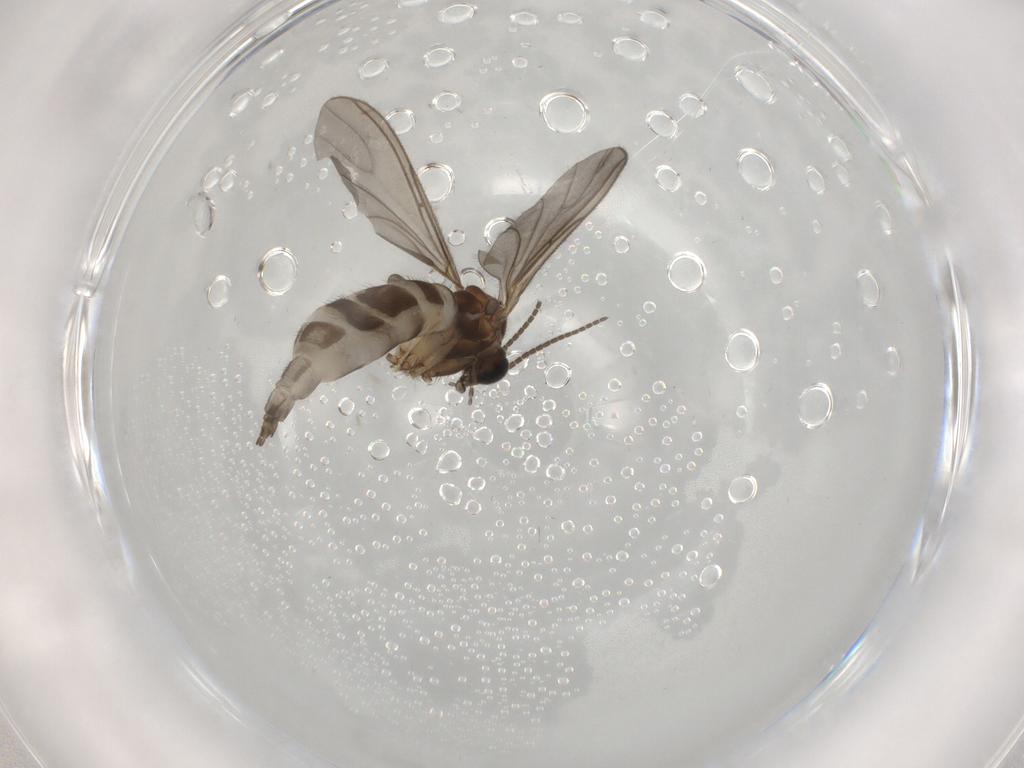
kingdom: Animalia
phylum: Arthropoda
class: Insecta
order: Diptera
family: Sciaridae
